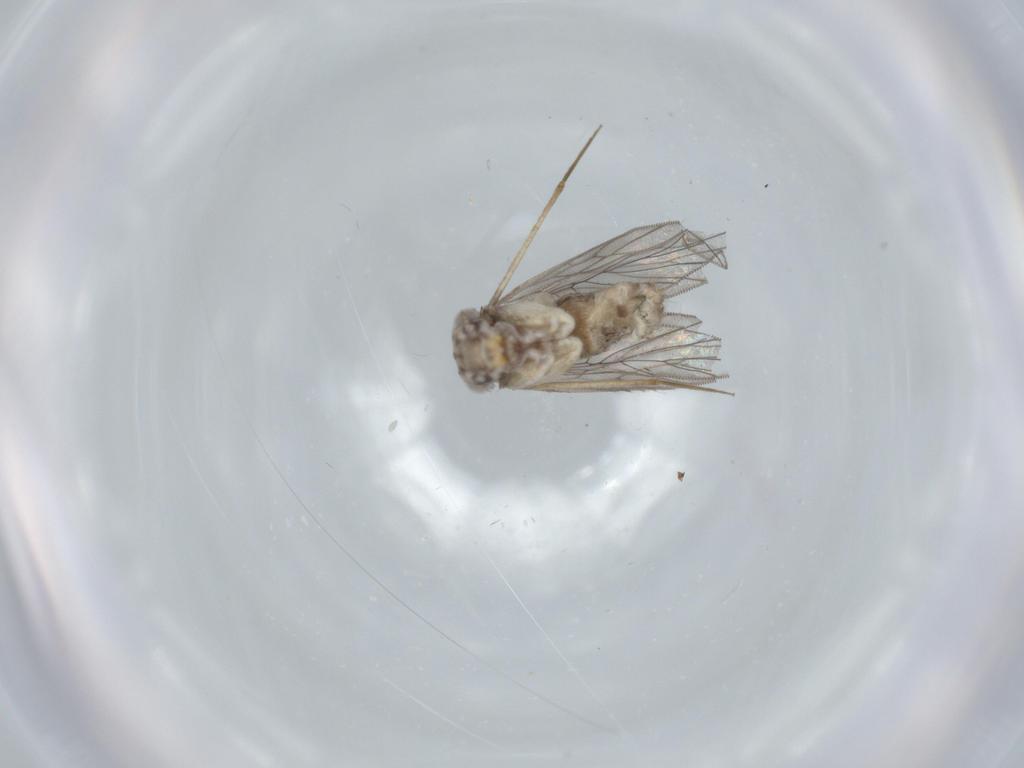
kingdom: Animalia
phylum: Arthropoda
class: Insecta
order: Psocodea
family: Lepidopsocidae
